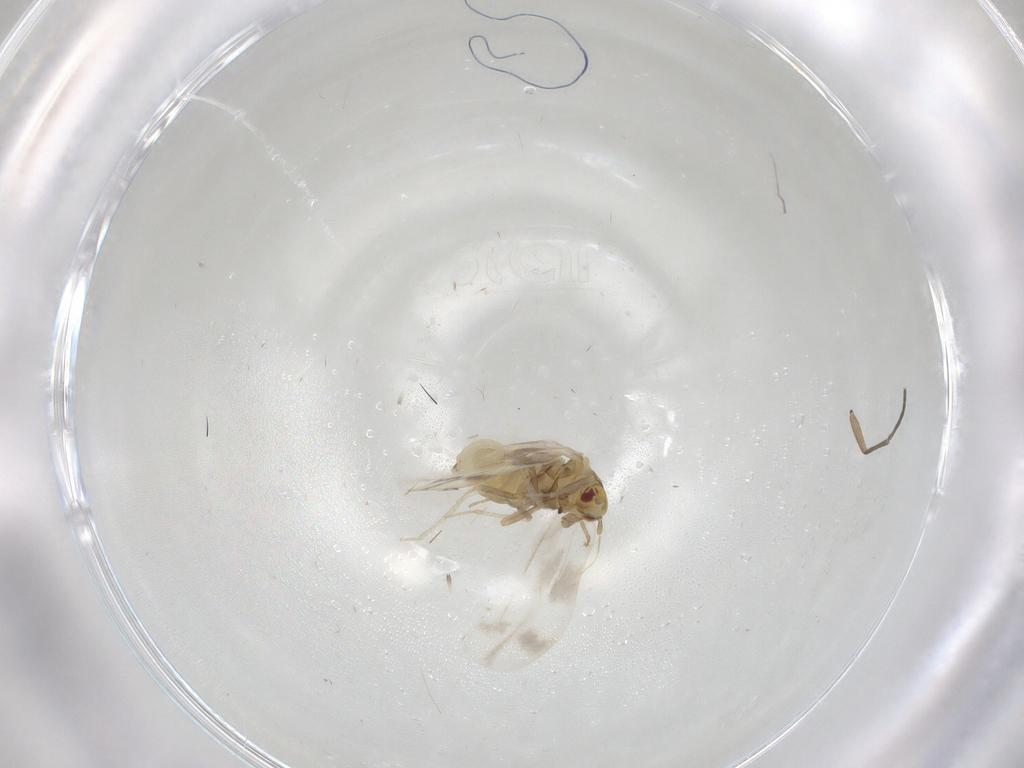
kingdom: Animalia
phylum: Arthropoda
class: Insecta
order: Hemiptera
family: Aleyrodidae
